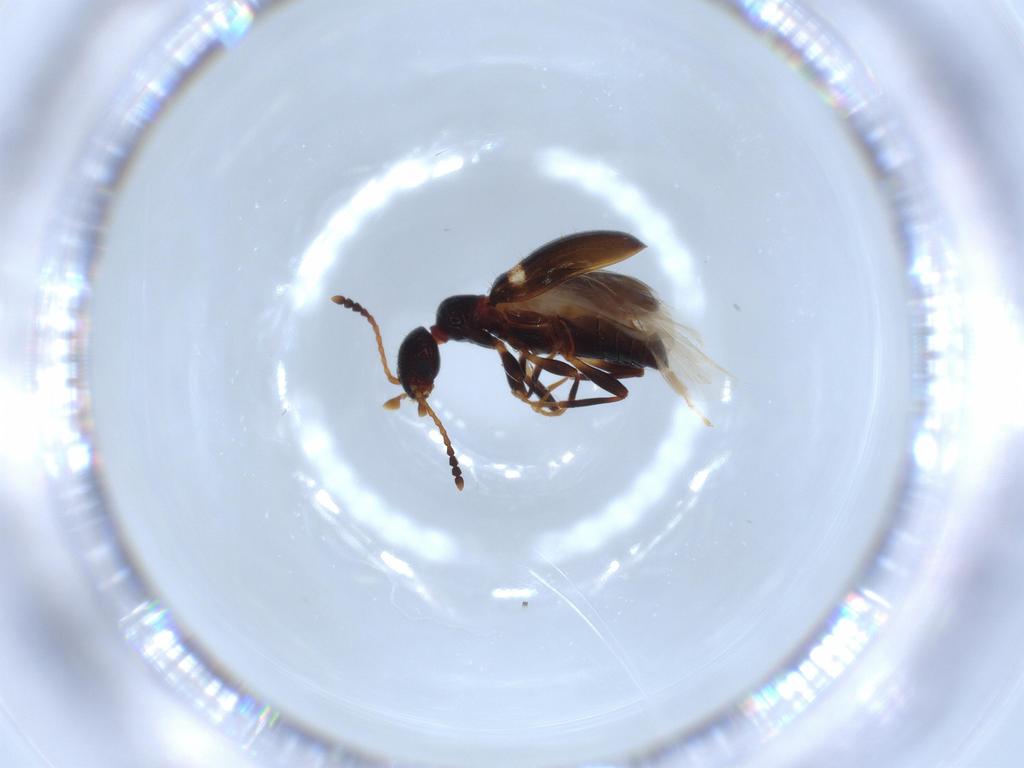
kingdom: Animalia
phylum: Arthropoda
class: Insecta
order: Coleoptera
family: Anthicidae
